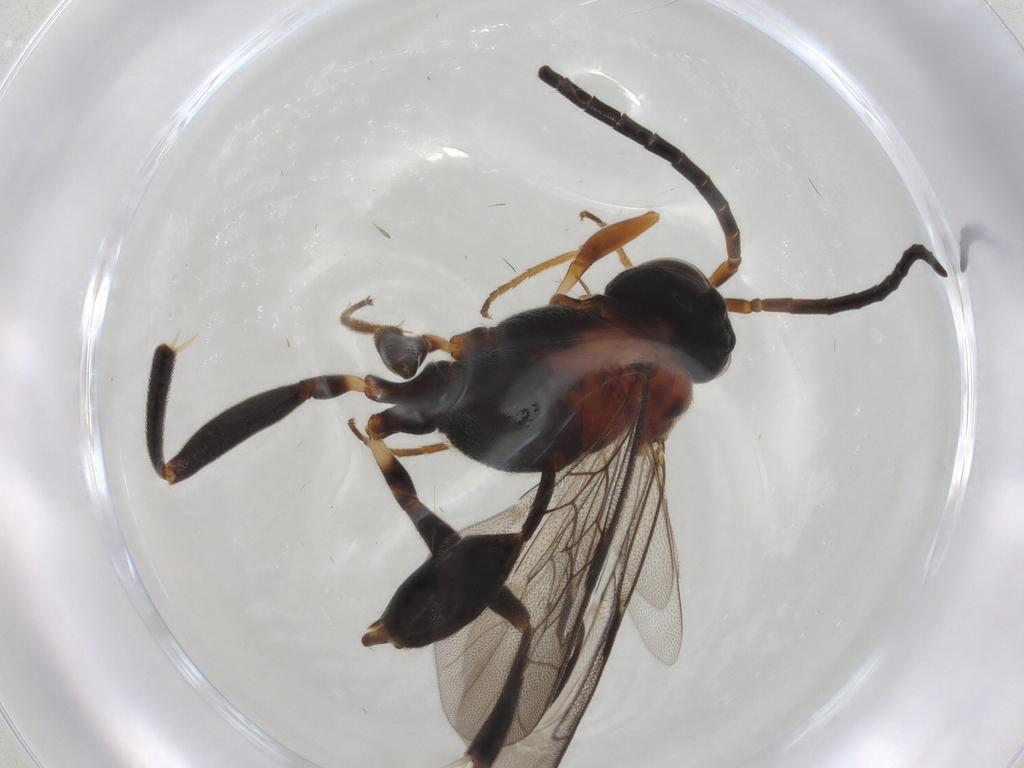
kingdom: Animalia
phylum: Arthropoda
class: Insecta
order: Hymenoptera
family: Evaniidae
